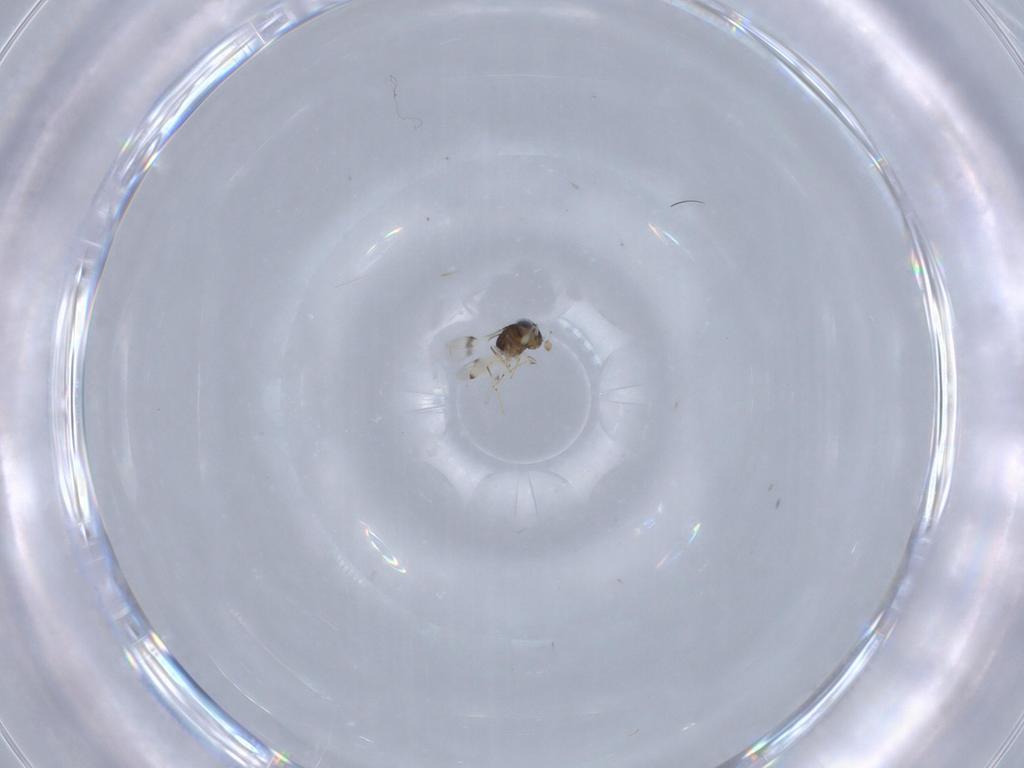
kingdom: Animalia
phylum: Arthropoda
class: Insecta
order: Hymenoptera
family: Scelionidae
